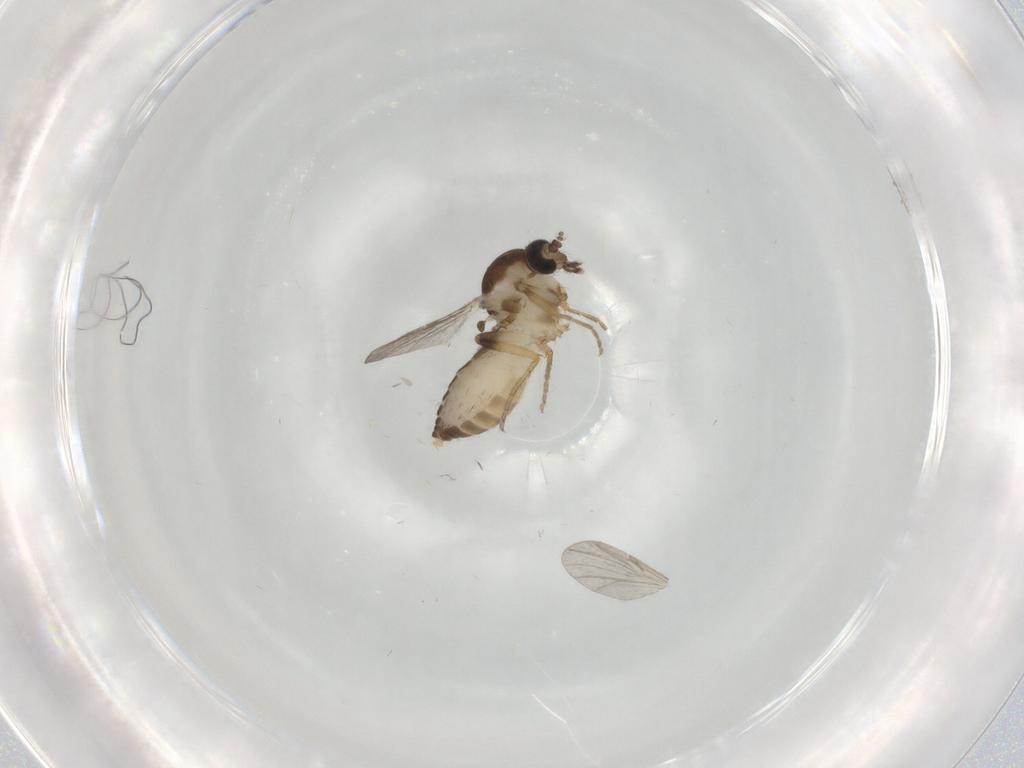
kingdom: Animalia
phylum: Arthropoda
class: Insecta
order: Diptera
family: Ceratopogonidae
